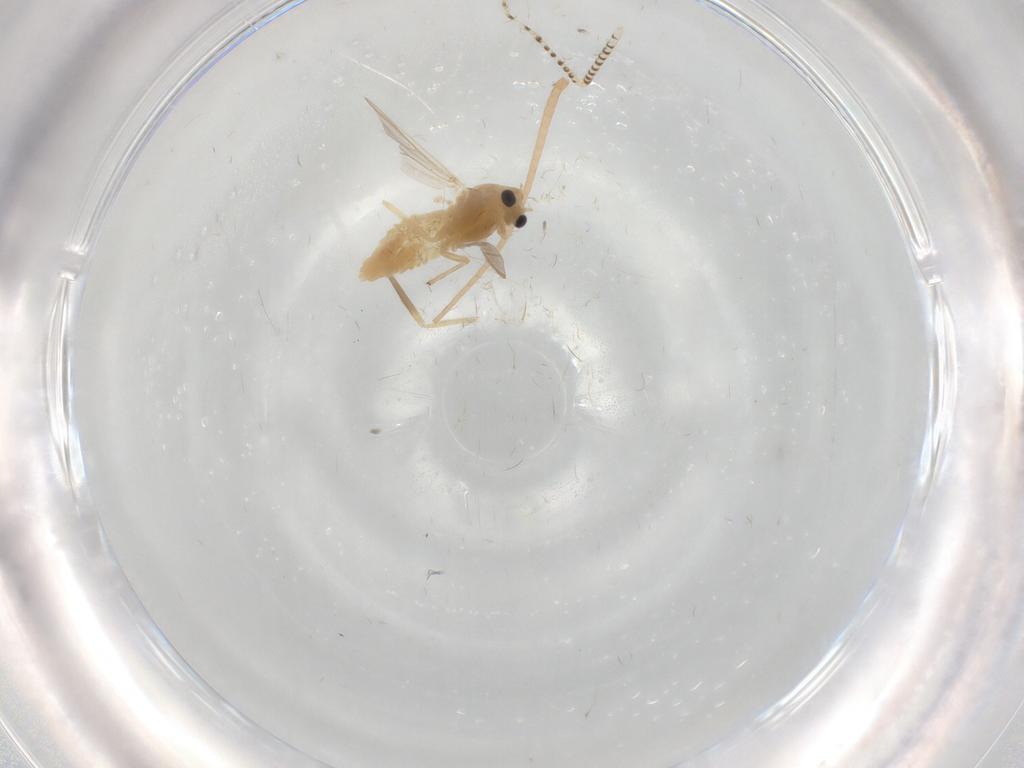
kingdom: Animalia
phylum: Arthropoda
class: Insecta
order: Diptera
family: Chironomidae
